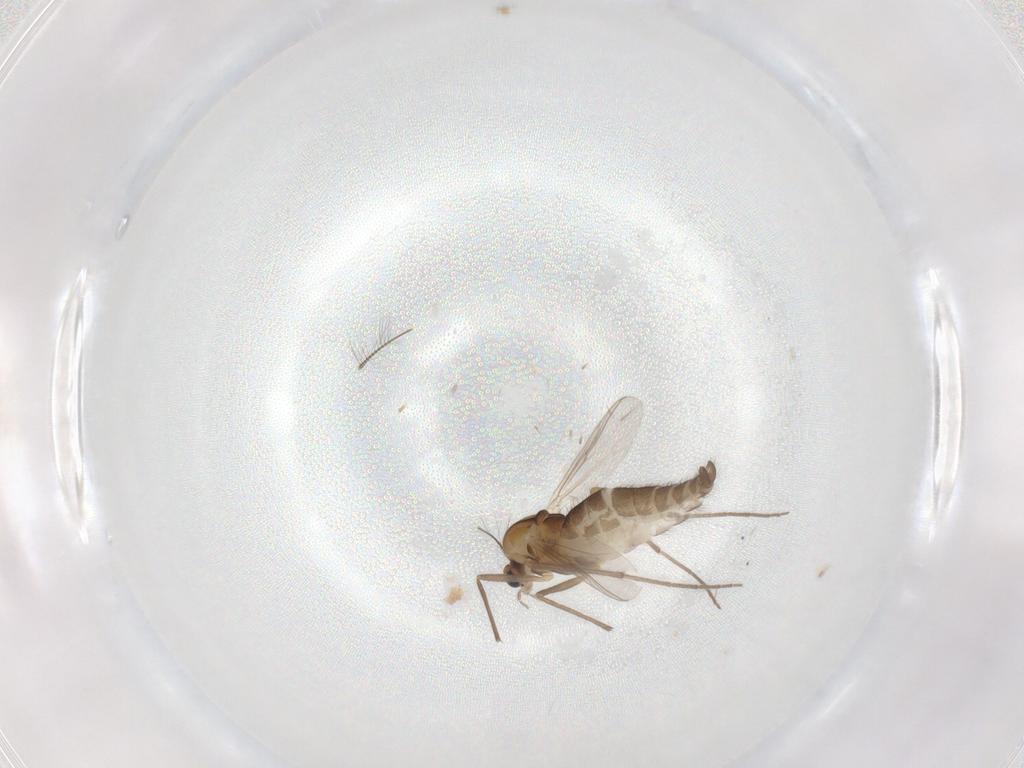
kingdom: Animalia
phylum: Arthropoda
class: Insecta
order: Diptera
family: Chironomidae
